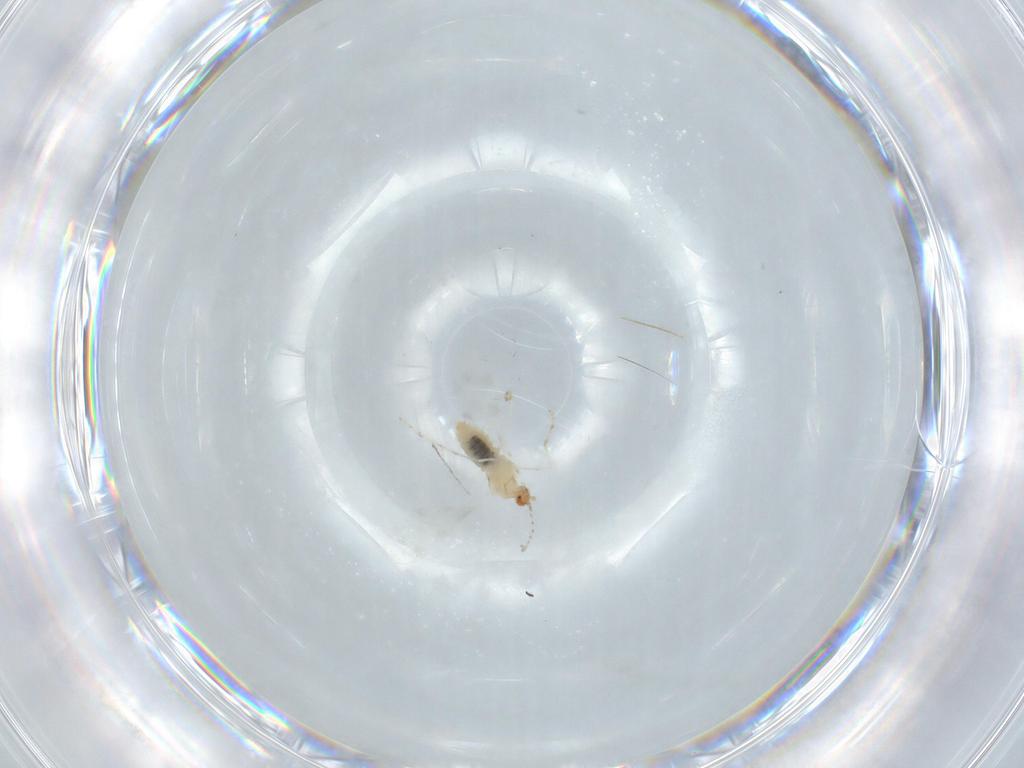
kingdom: Animalia
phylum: Arthropoda
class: Insecta
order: Diptera
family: Cecidomyiidae
